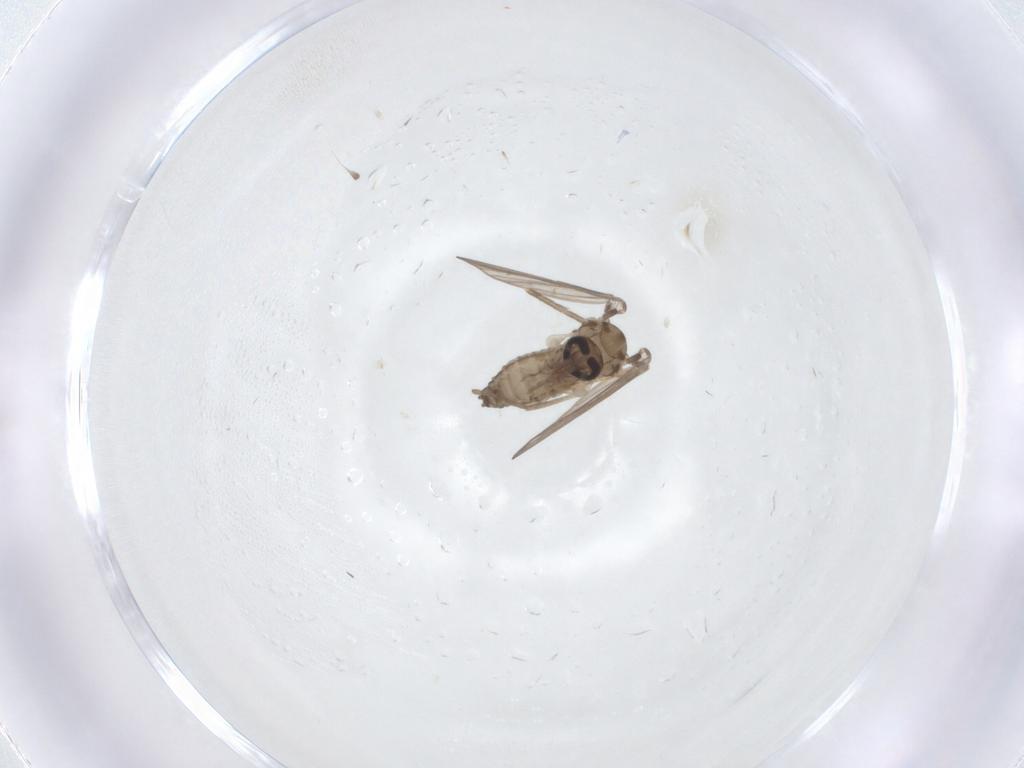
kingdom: Animalia
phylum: Arthropoda
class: Insecta
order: Diptera
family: Psychodidae
